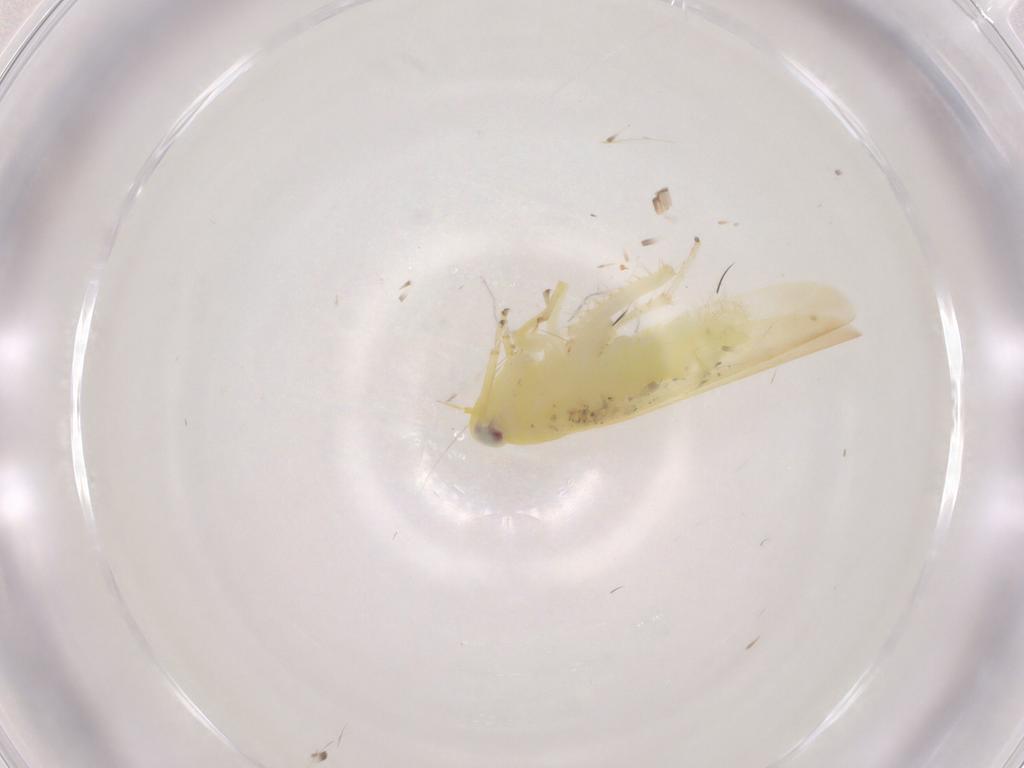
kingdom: Animalia
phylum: Arthropoda
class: Insecta
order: Hemiptera
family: Cicadellidae
